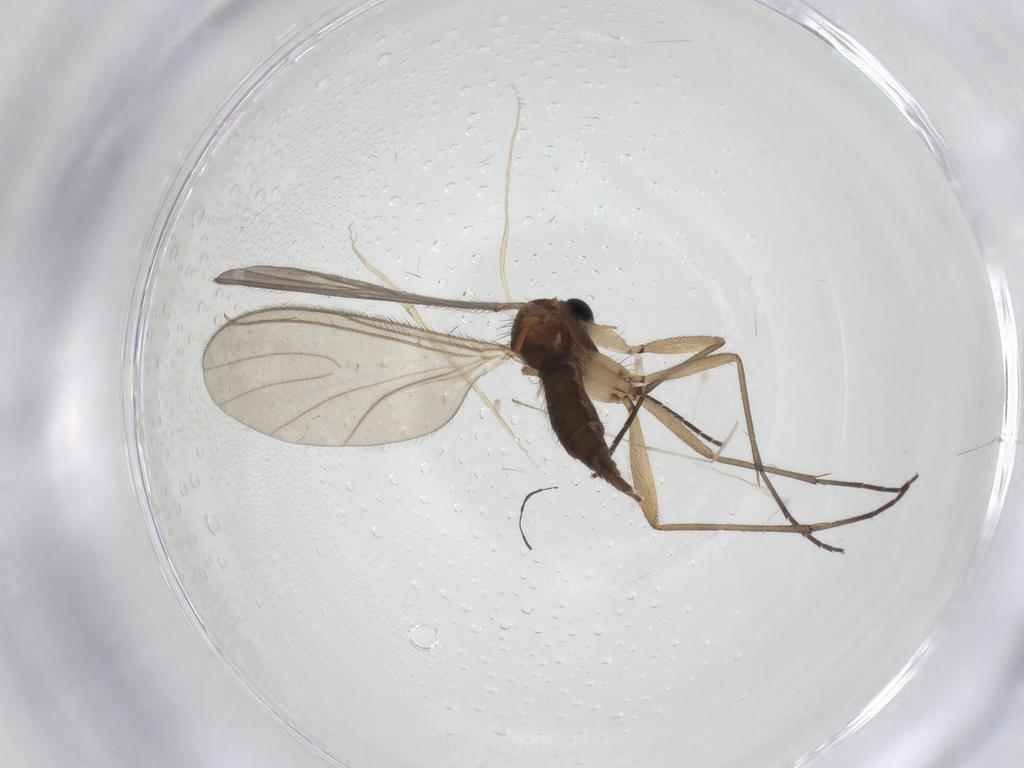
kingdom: Animalia
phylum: Arthropoda
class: Insecta
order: Diptera
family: Sciaridae
